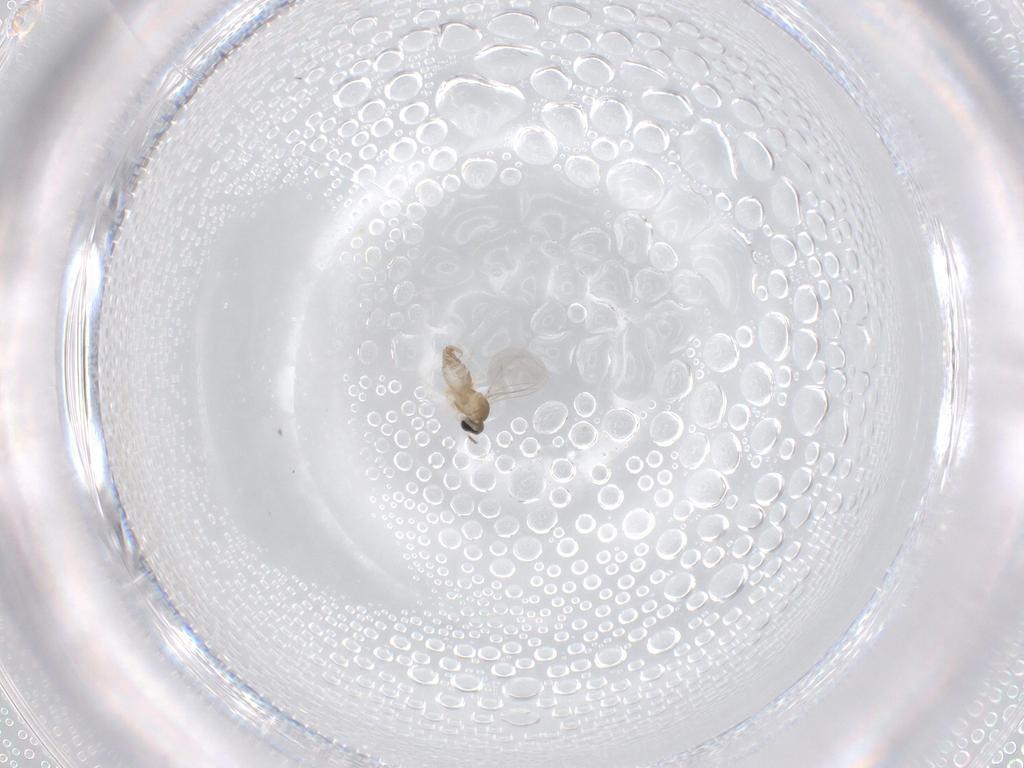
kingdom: Animalia
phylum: Arthropoda
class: Insecta
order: Diptera
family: Cecidomyiidae
